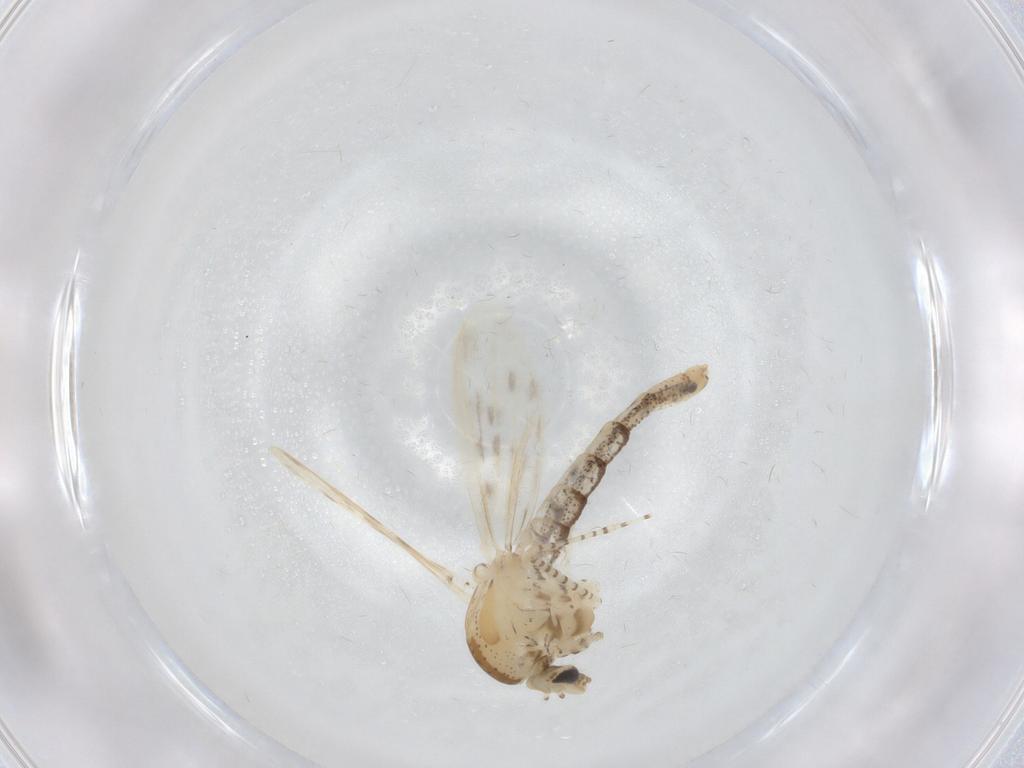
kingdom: Animalia
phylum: Arthropoda
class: Insecta
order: Diptera
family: Chaoboridae
